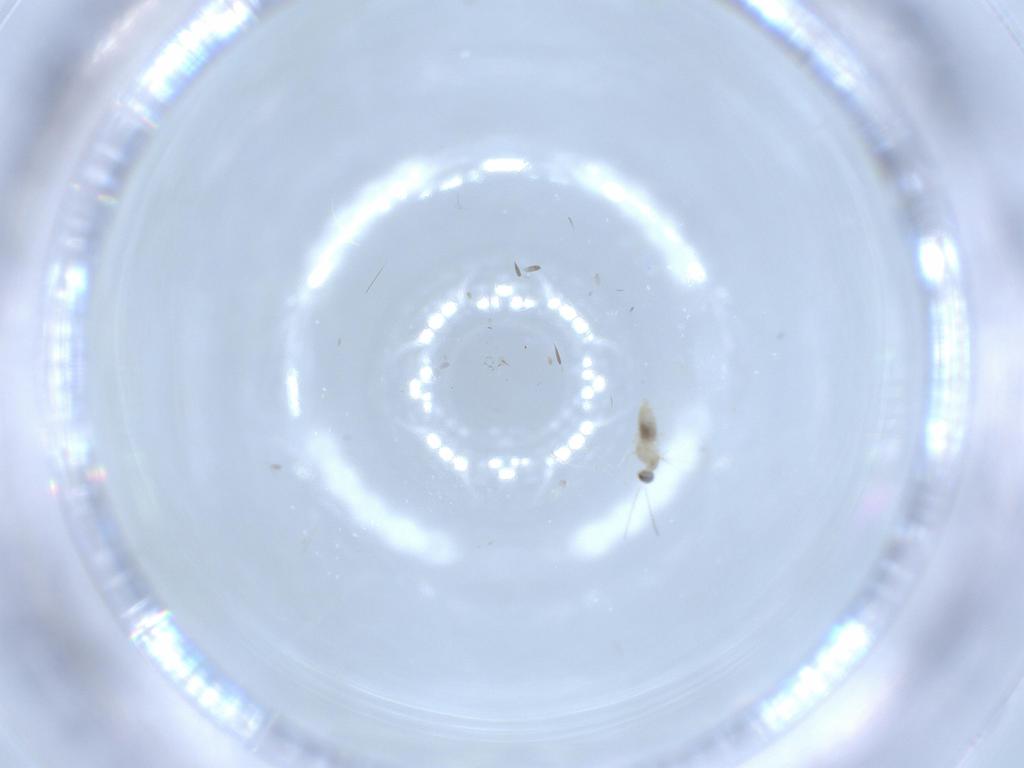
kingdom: Animalia
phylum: Arthropoda
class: Insecta
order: Diptera
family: Cecidomyiidae
